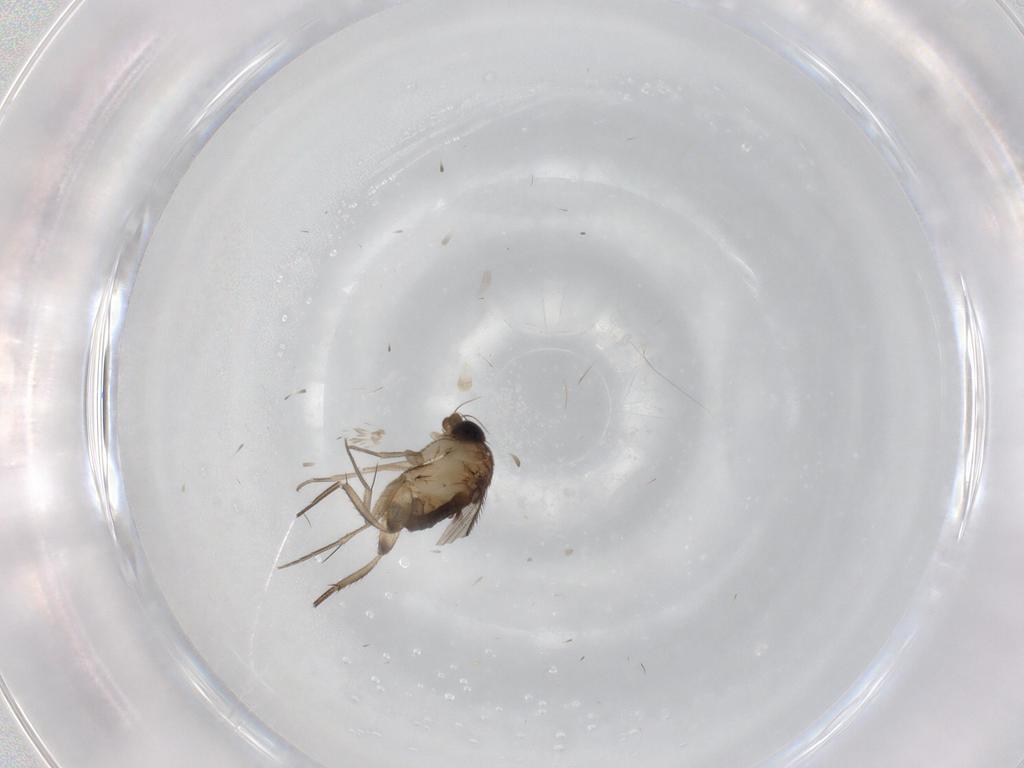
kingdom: Animalia
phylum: Arthropoda
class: Insecta
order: Diptera
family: Phoridae
